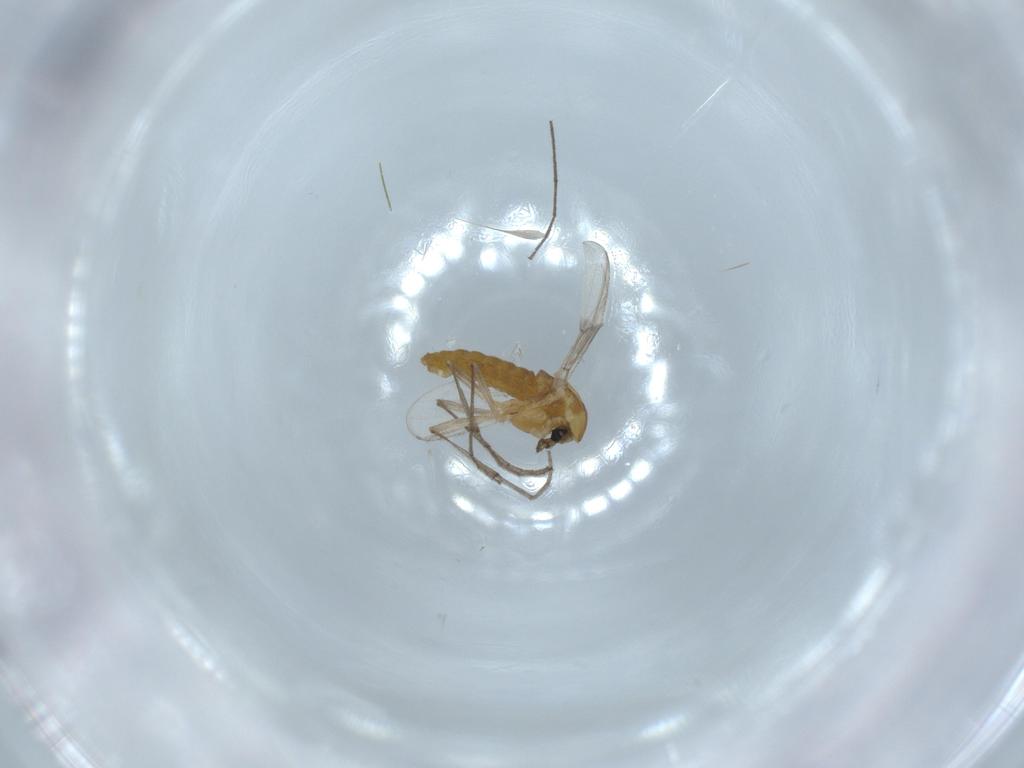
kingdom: Animalia
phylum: Arthropoda
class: Insecta
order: Diptera
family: Chironomidae
